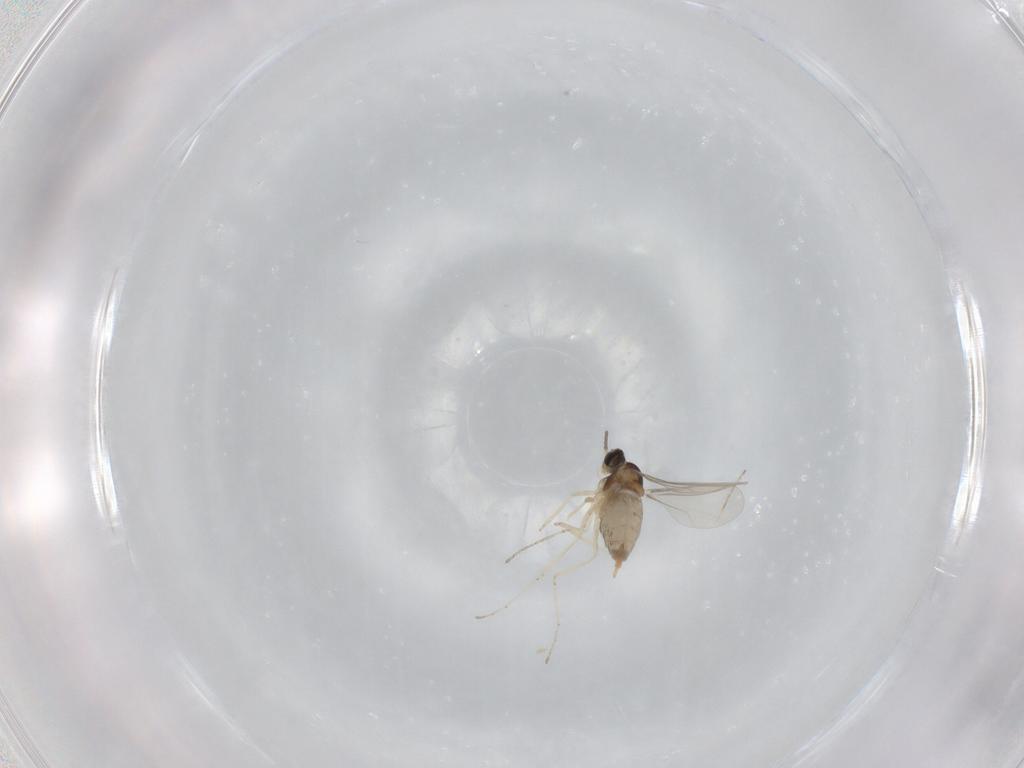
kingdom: Animalia
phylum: Arthropoda
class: Insecta
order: Diptera
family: Cecidomyiidae
